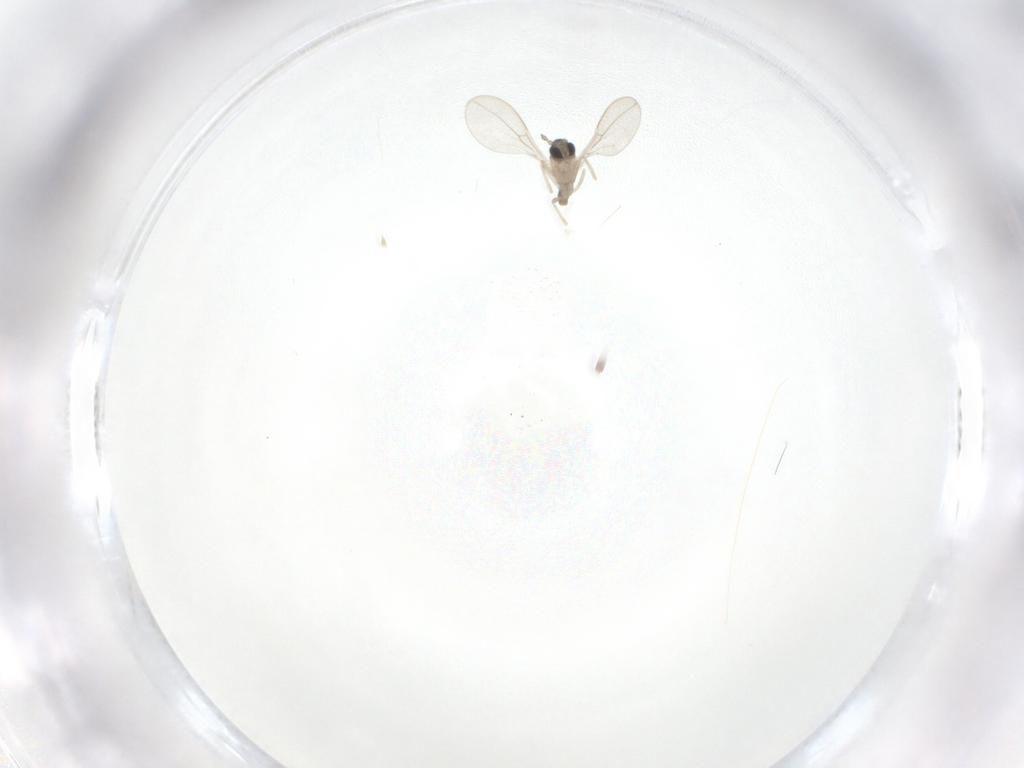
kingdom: Animalia
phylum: Arthropoda
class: Insecta
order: Diptera
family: Cecidomyiidae
